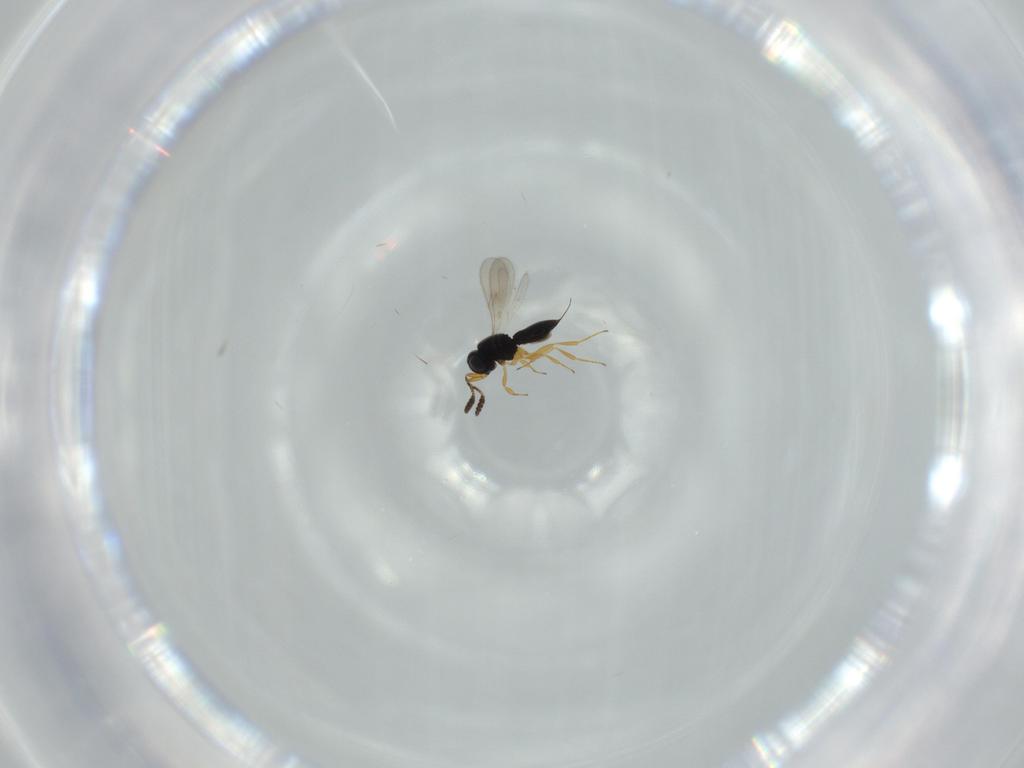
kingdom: Animalia
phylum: Arthropoda
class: Insecta
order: Hymenoptera
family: Scelionidae
